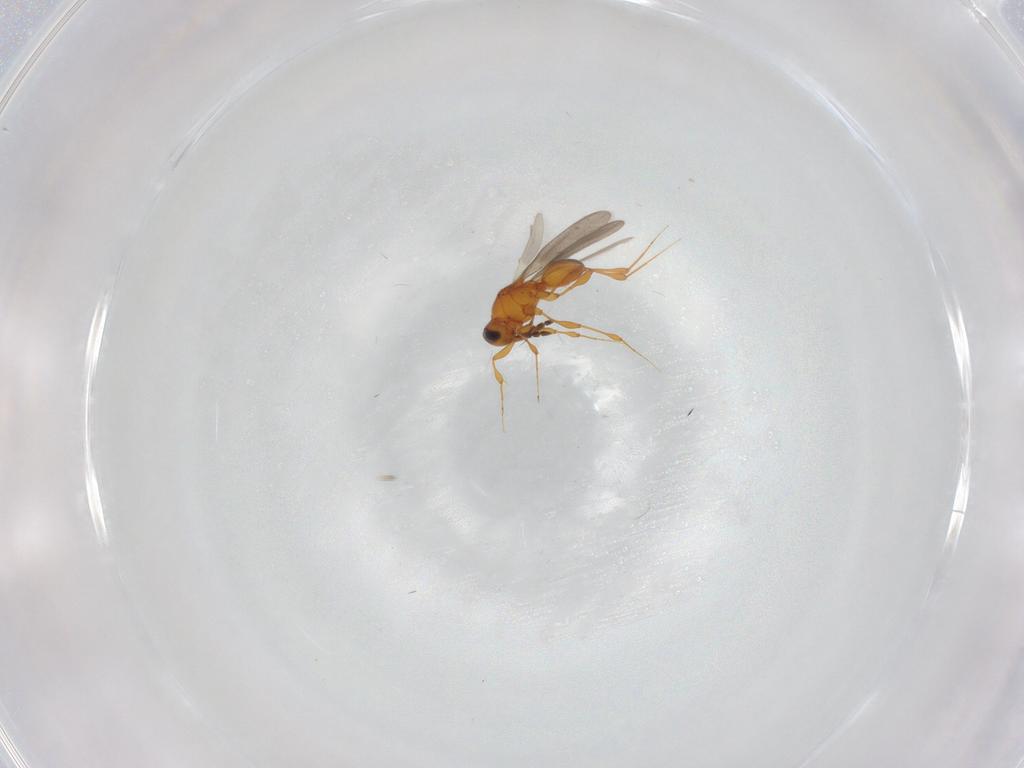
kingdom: Animalia
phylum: Arthropoda
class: Insecta
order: Hymenoptera
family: Platygastridae
